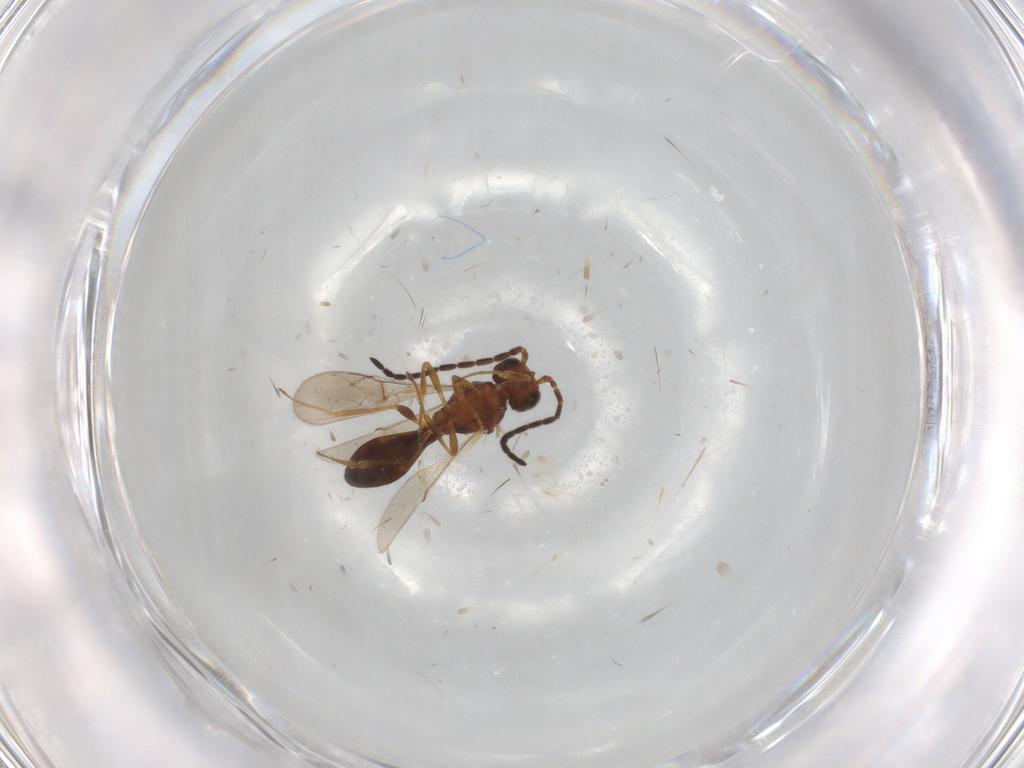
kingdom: Animalia
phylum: Arthropoda
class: Insecta
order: Hymenoptera
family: Scelionidae
